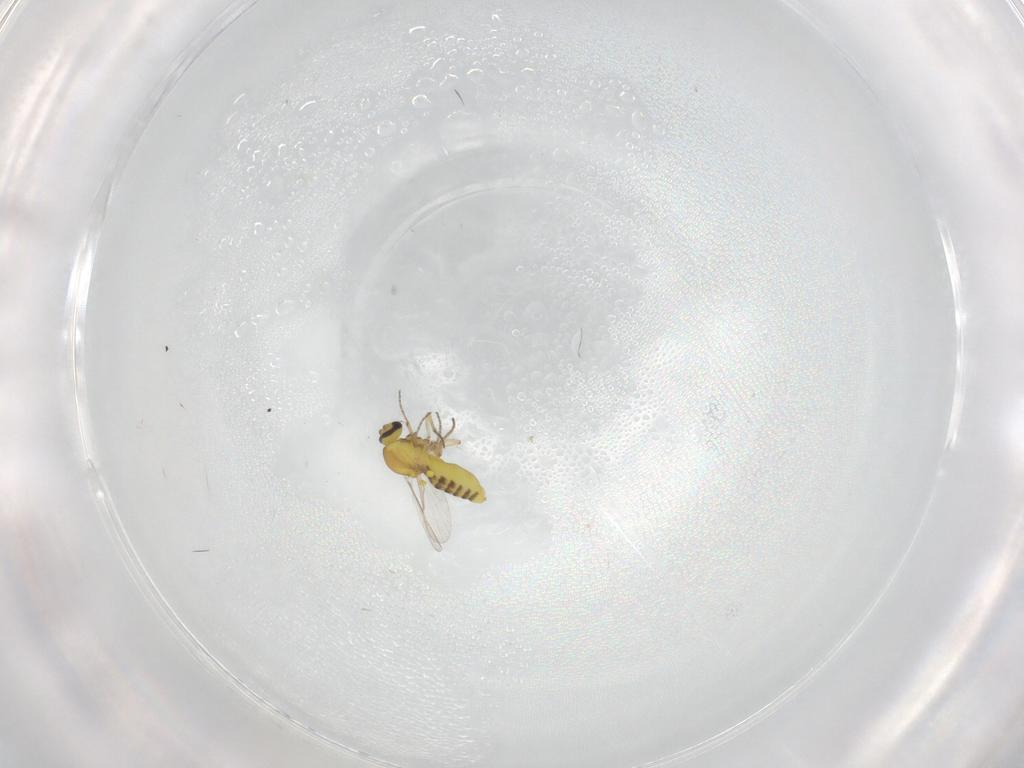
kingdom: Animalia
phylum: Arthropoda
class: Insecta
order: Diptera
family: Ceratopogonidae
